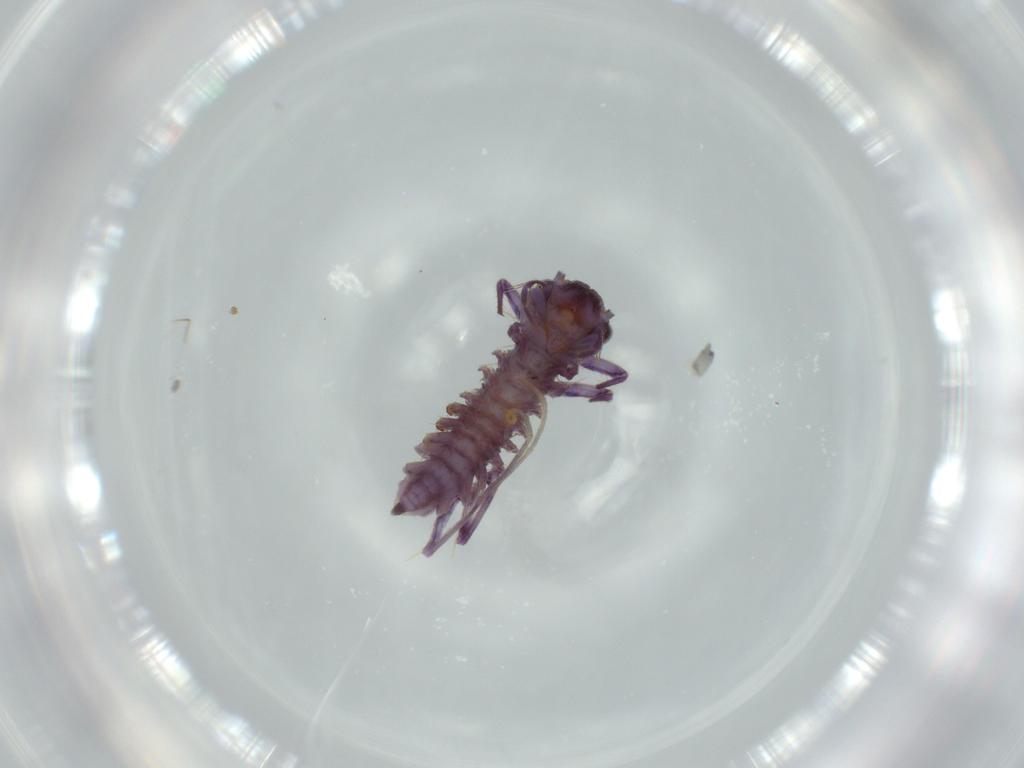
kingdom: Animalia
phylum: Arthropoda
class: Chilopoda
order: Scutigeromorpha
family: Scutigeridae
